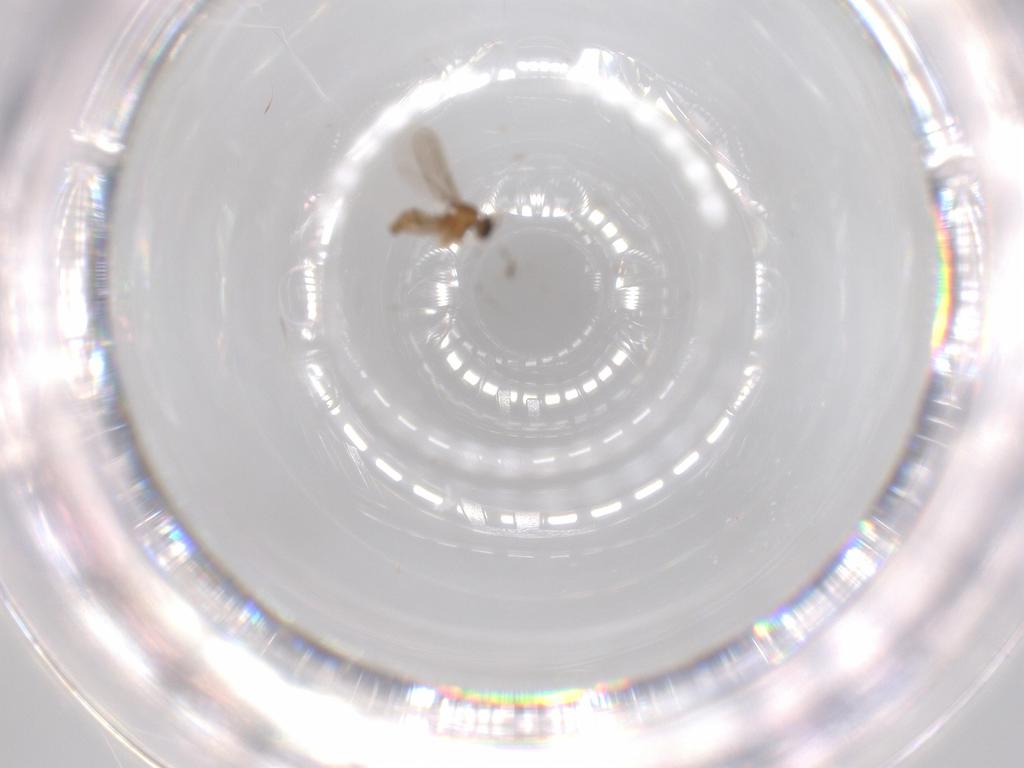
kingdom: Animalia
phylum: Arthropoda
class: Insecta
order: Diptera
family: Cecidomyiidae
